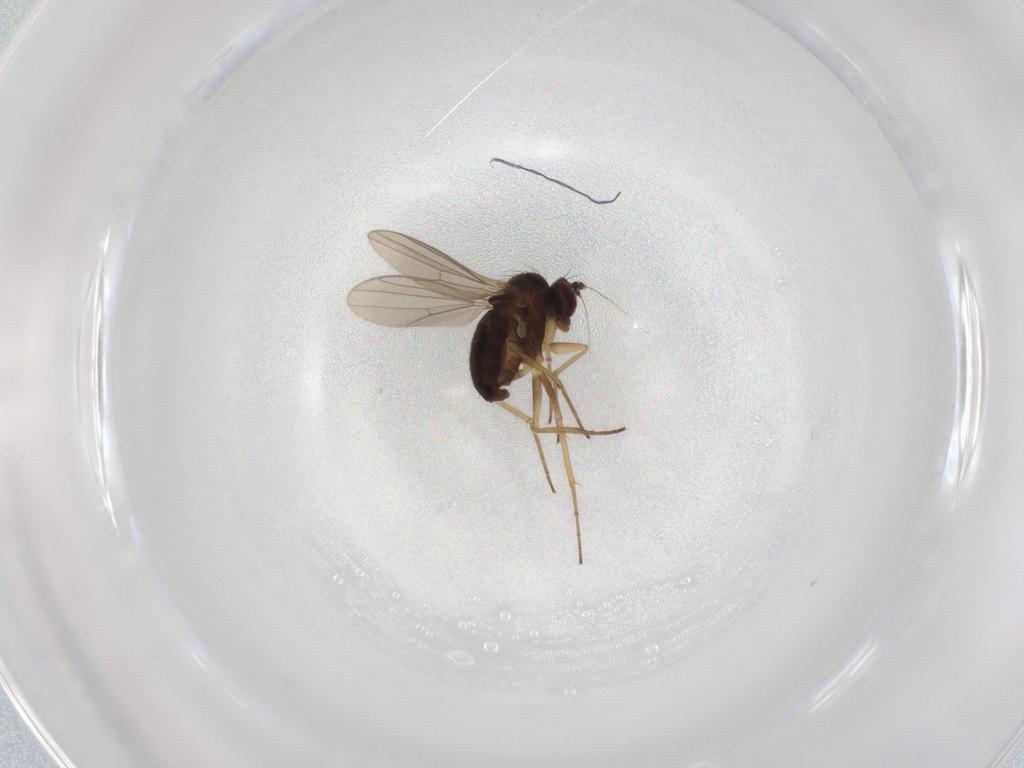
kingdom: Animalia
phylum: Arthropoda
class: Insecta
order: Diptera
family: Dolichopodidae
